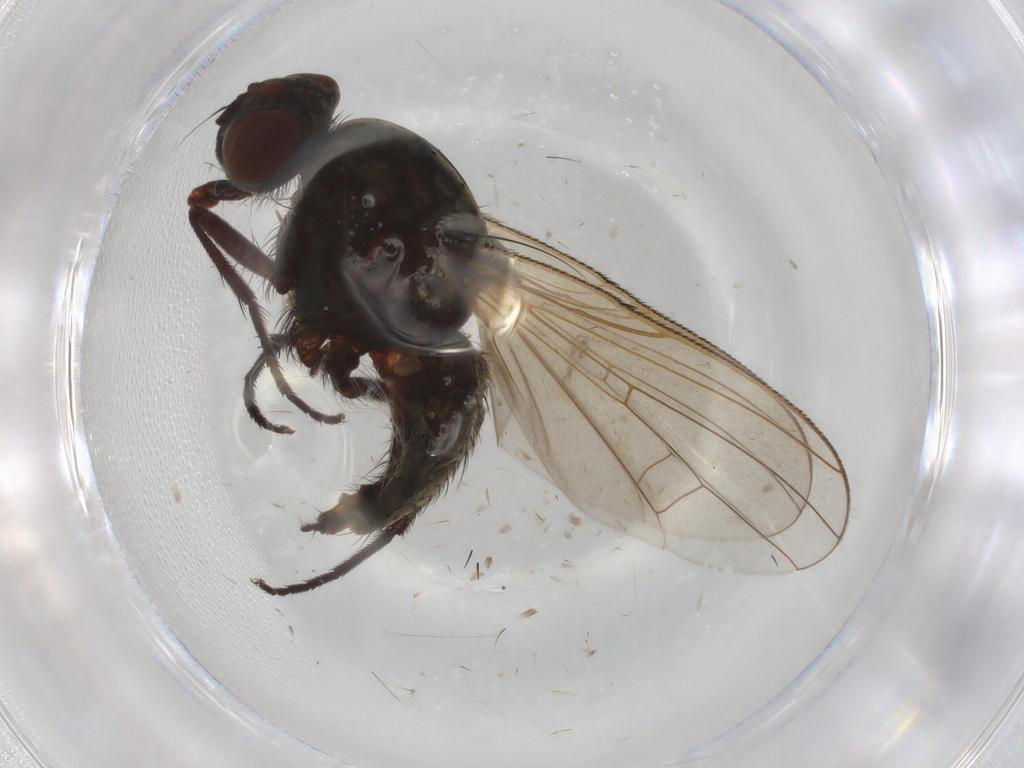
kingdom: Animalia
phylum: Arthropoda
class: Insecta
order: Diptera
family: Anthomyiidae
